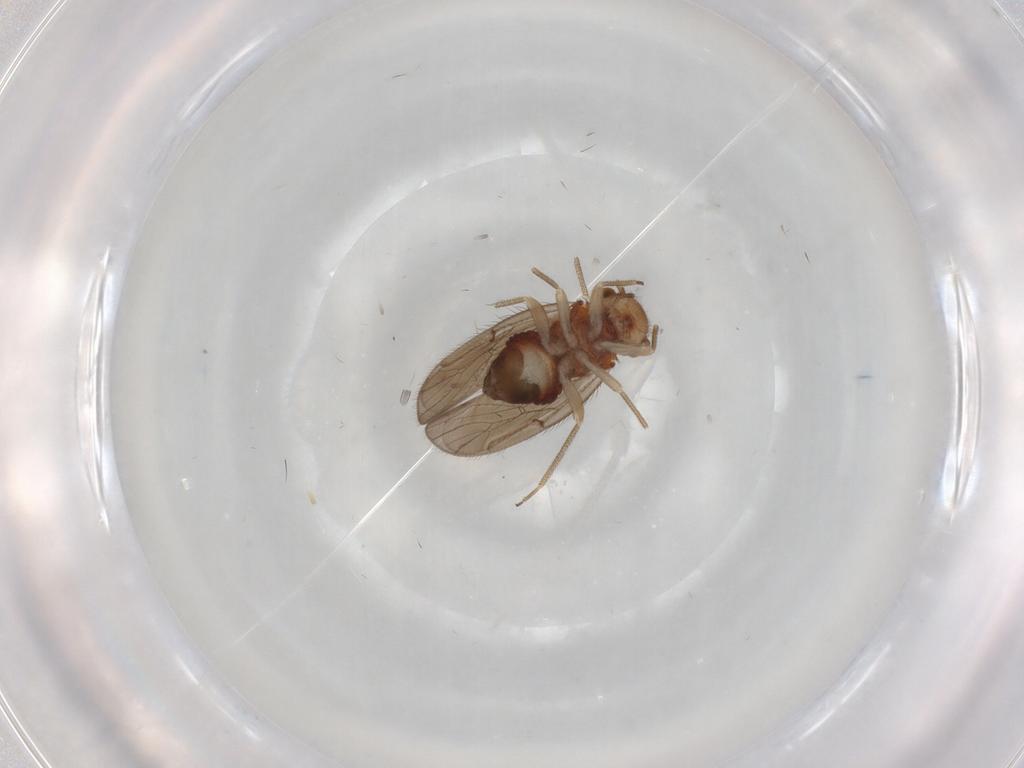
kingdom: Animalia
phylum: Arthropoda
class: Insecta
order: Psocodea
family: Ectopsocidae
